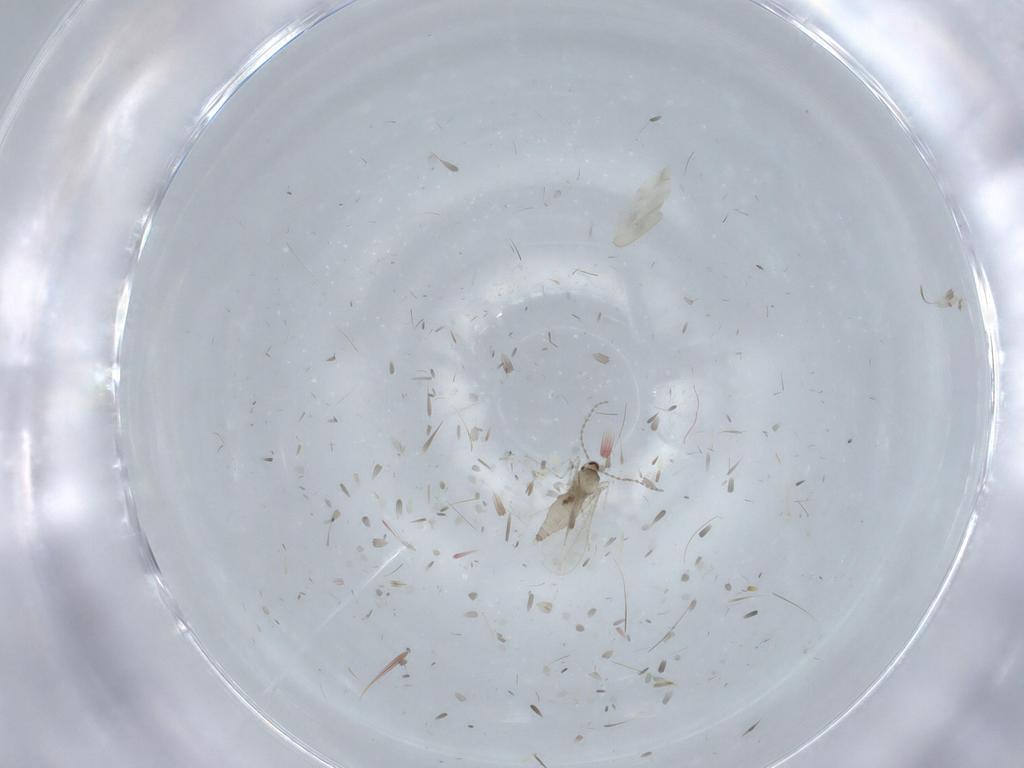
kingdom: Animalia
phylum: Arthropoda
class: Insecta
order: Diptera
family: Cecidomyiidae
